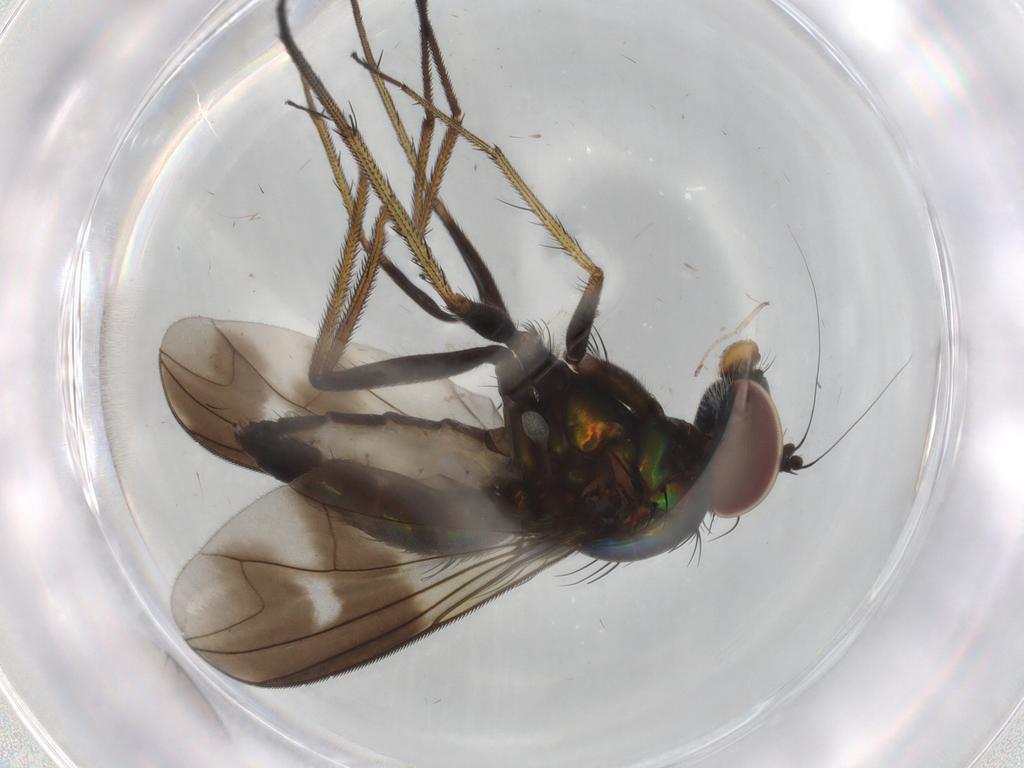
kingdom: Animalia
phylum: Arthropoda
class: Insecta
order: Diptera
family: Dolichopodidae
